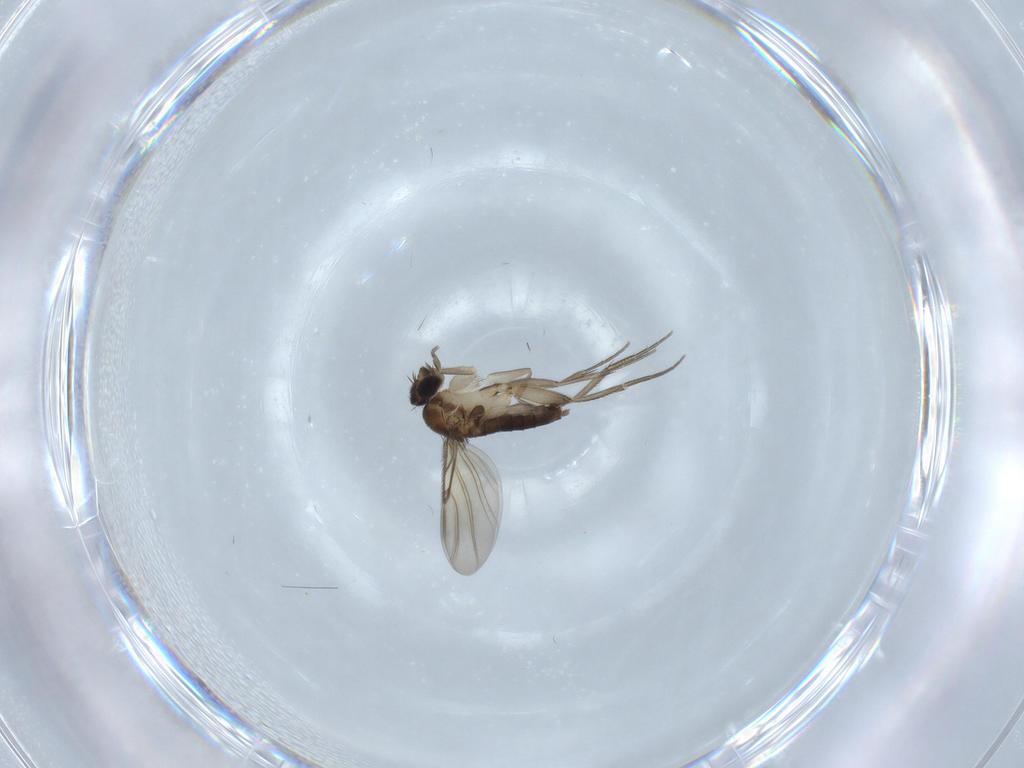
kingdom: Animalia
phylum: Arthropoda
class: Insecta
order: Diptera
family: Phoridae
